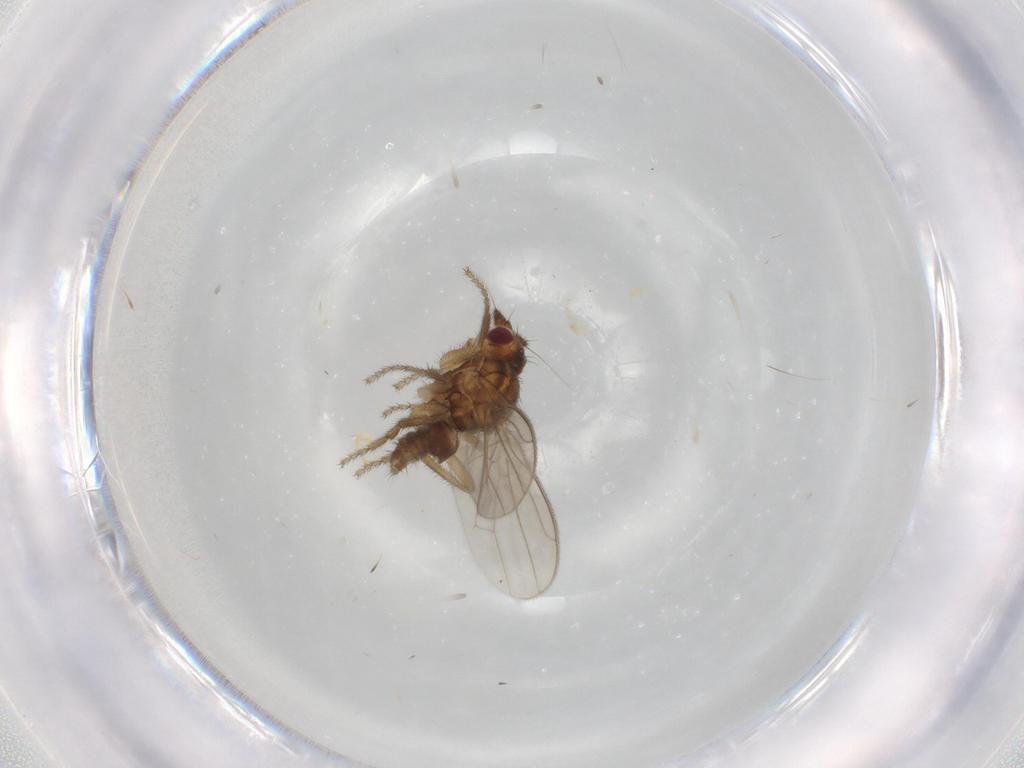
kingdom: Animalia
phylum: Arthropoda
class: Insecta
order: Diptera
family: Sphaeroceridae
